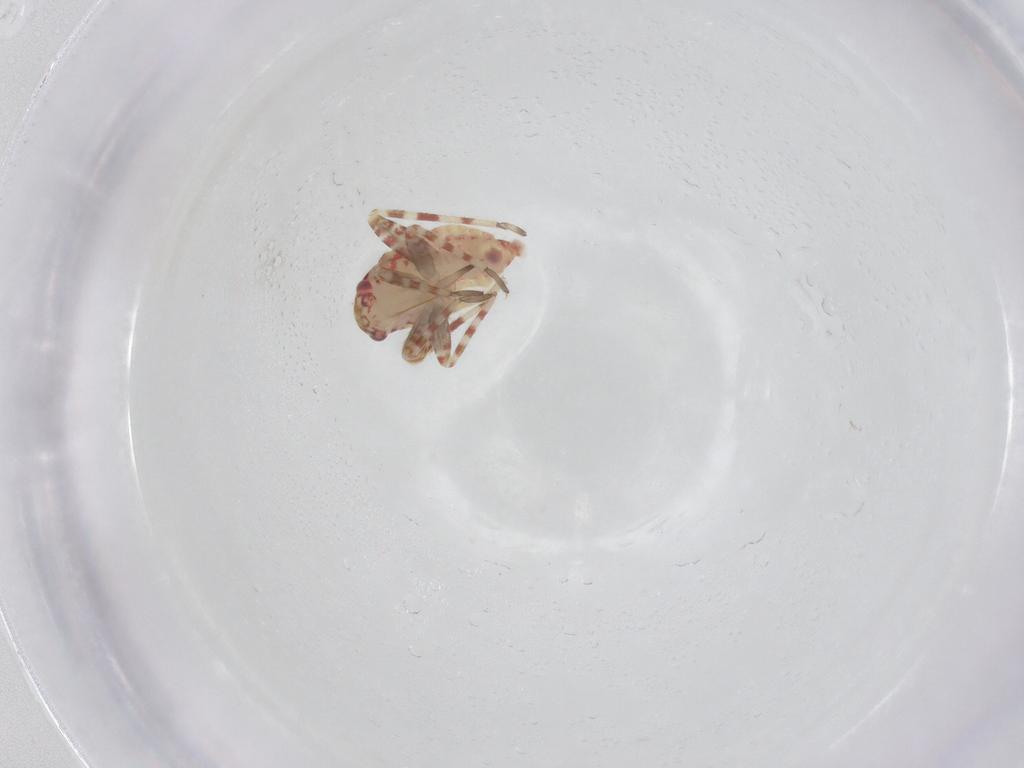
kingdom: Animalia
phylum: Arthropoda
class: Insecta
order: Hemiptera
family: Miridae
